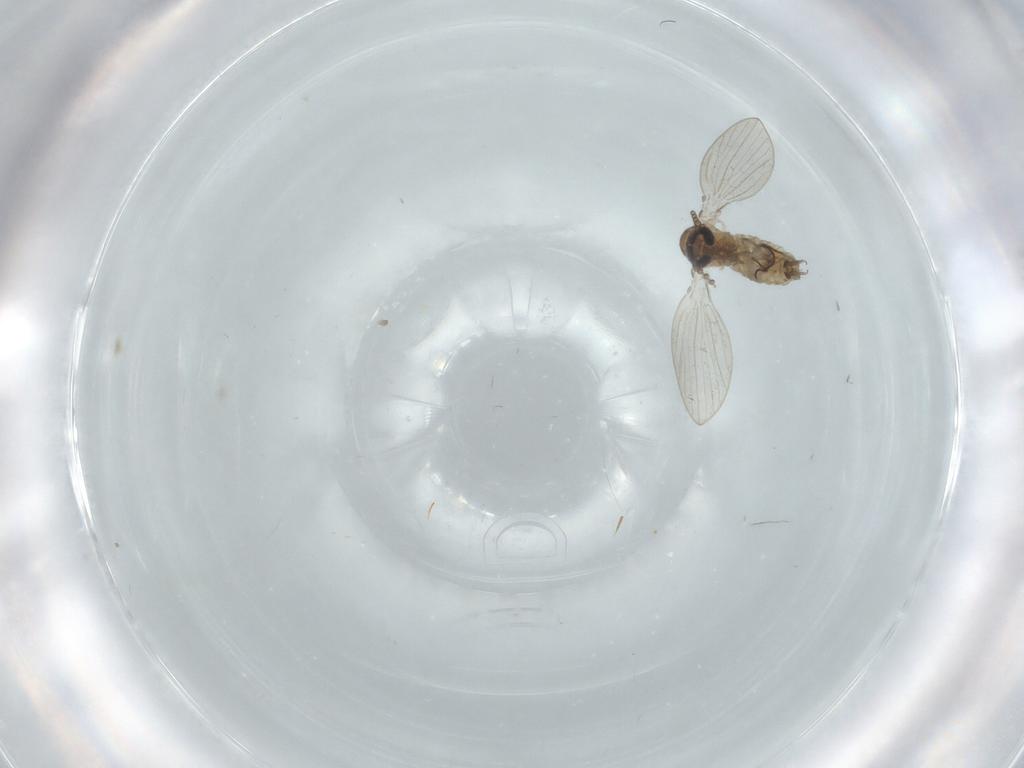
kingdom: Animalia
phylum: Arthropoda
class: Insecta
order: Diptera
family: Psychodidae
